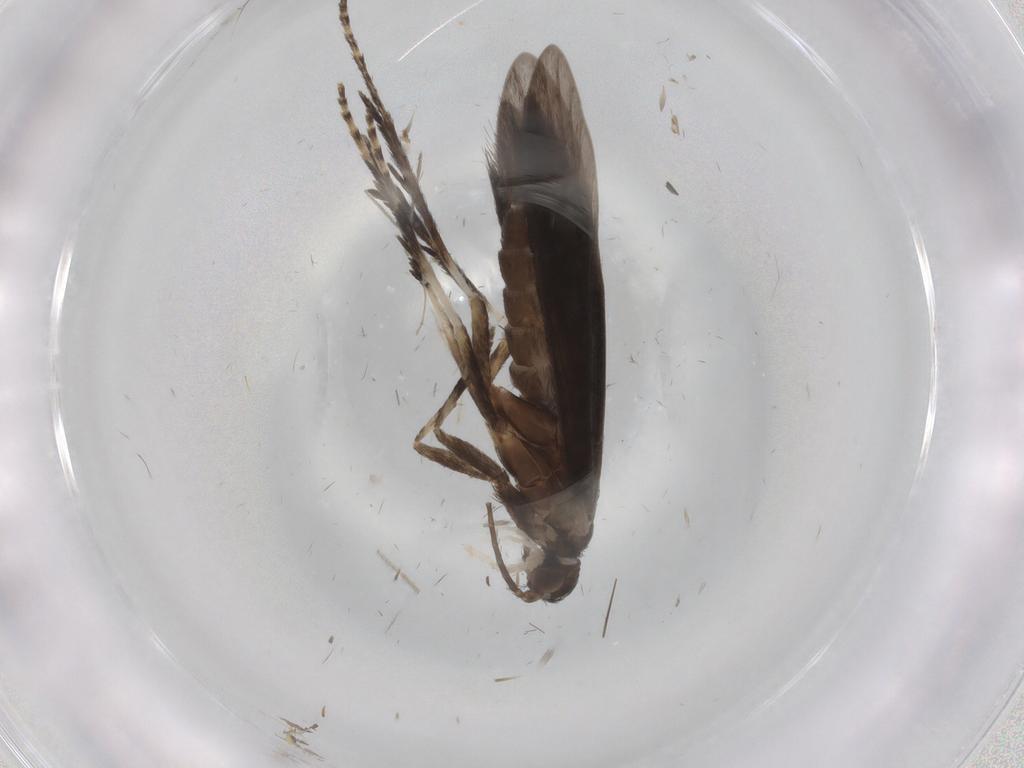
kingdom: Animalia
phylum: Arthropoda
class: Insecta
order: Trichoptera
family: Xiphocentronidae
